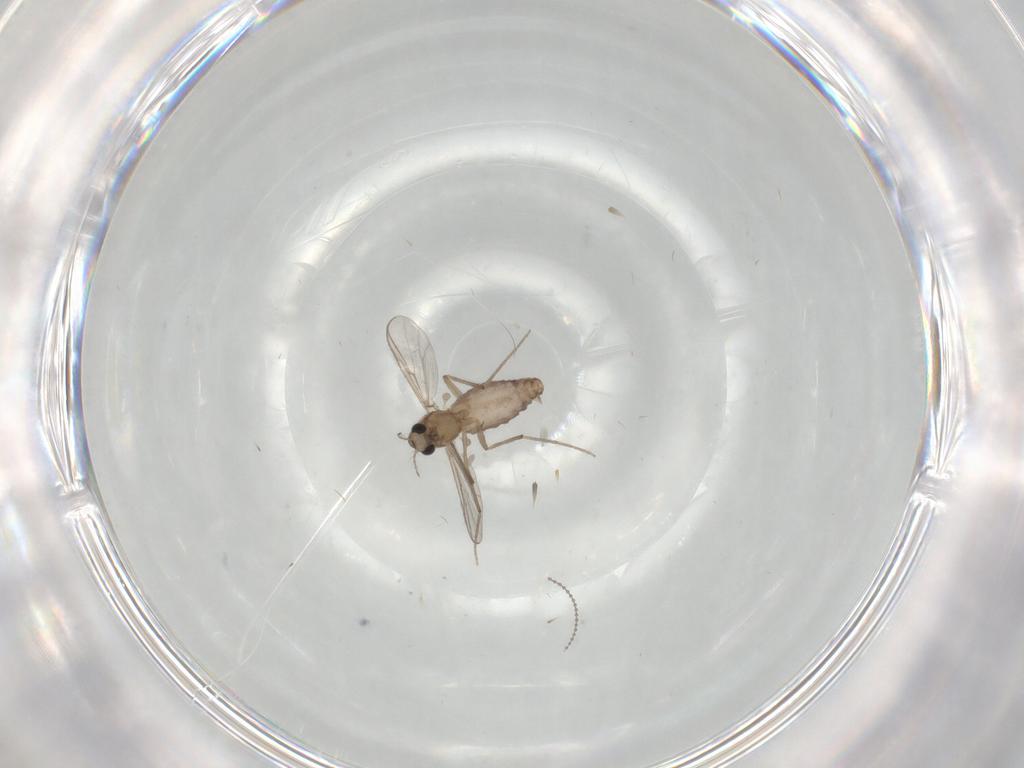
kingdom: Animalia
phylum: Arthropoda
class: Insecta
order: Diptera
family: Chironomidae
